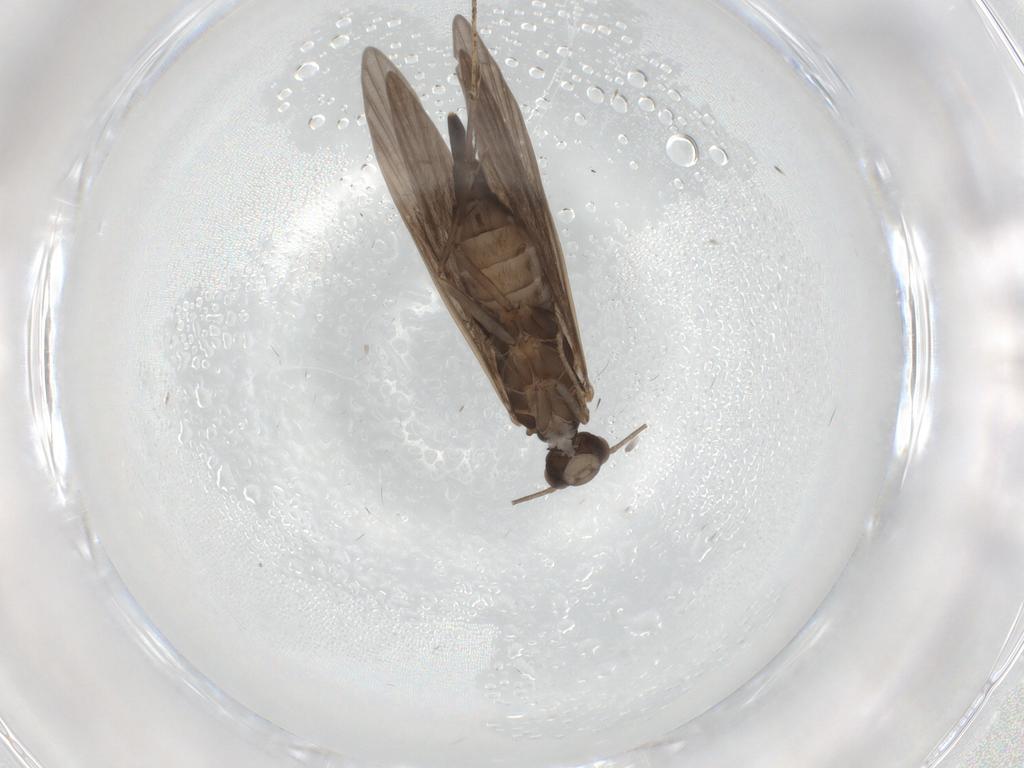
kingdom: Animalia
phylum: Arthropoda
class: Insecta
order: Trichoptera
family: Xiphocentronidae
